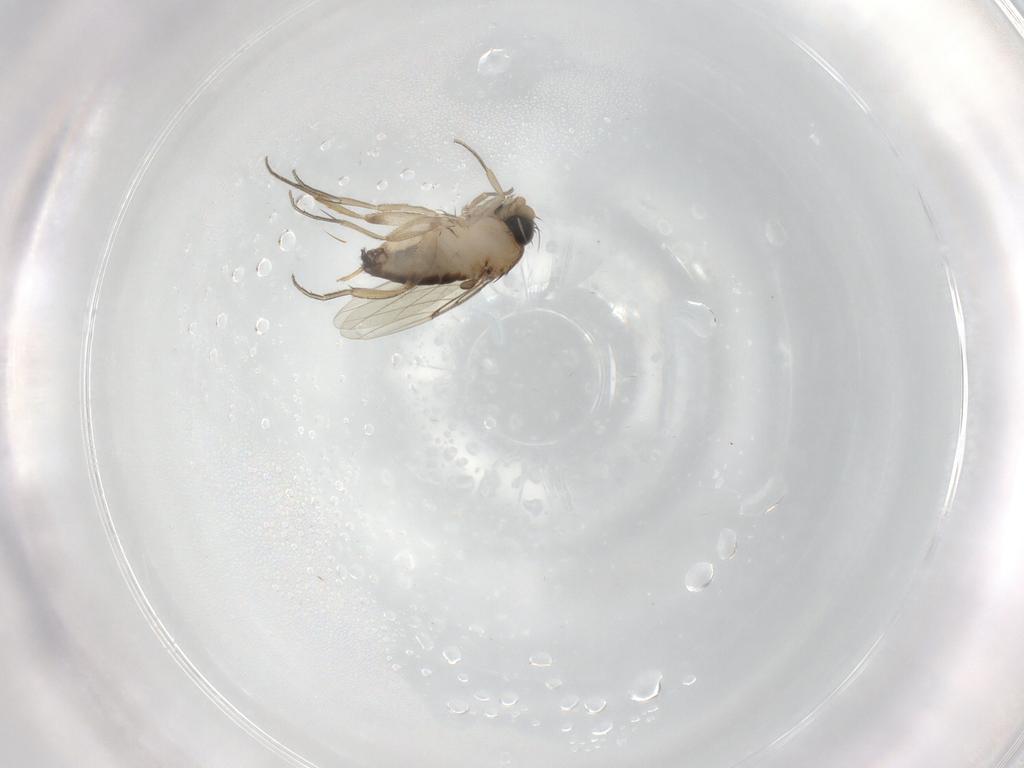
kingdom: Animalia
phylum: Arthropoda
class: Insecta
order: Diptera
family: Phoridae
